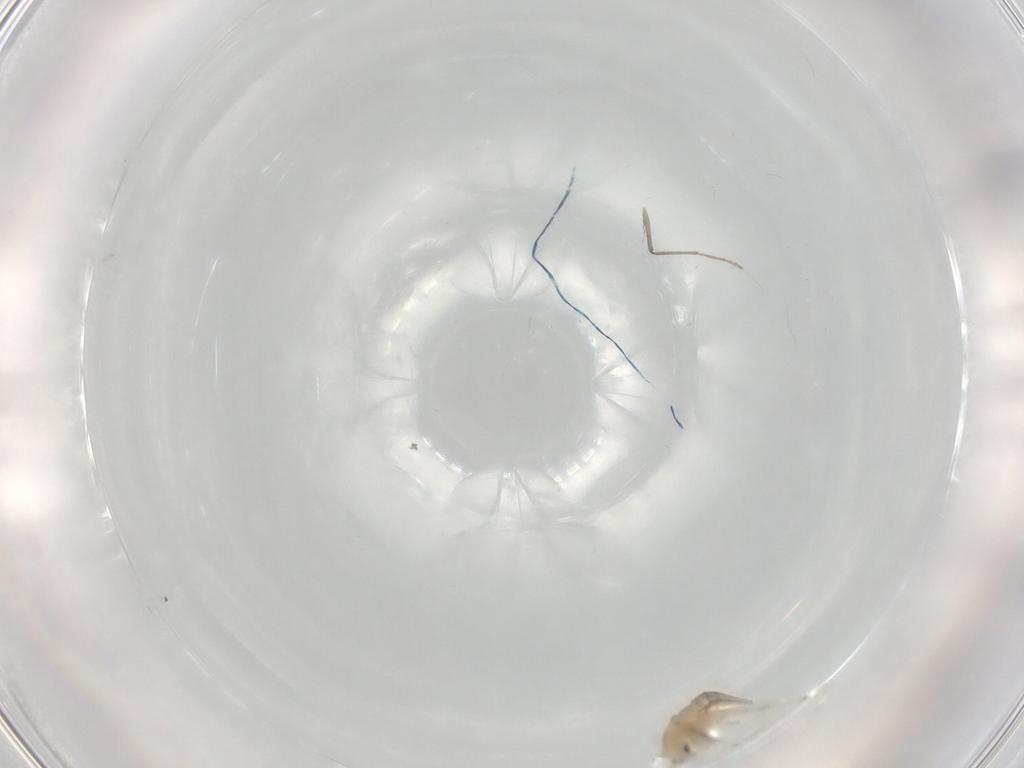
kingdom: Animalia
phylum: Arthropoda
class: Insecta
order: Diptera
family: Chironomidae
